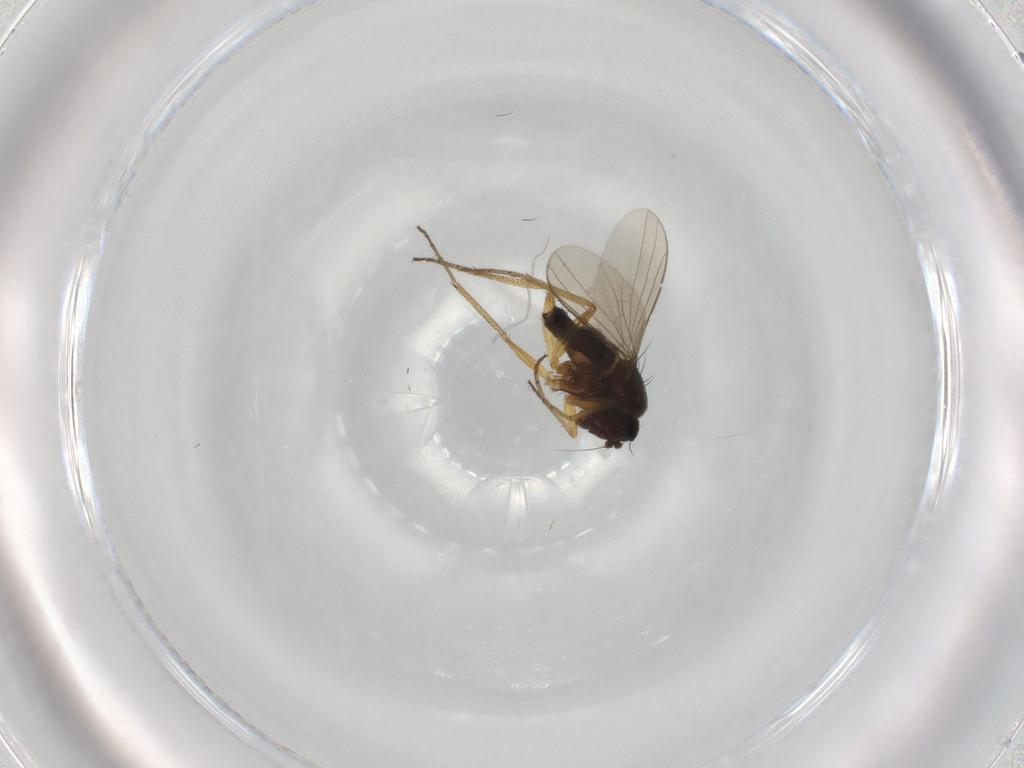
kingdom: Animalia
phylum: Arthropoda
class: Insecta
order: Diptera
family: Dolichopodidae
